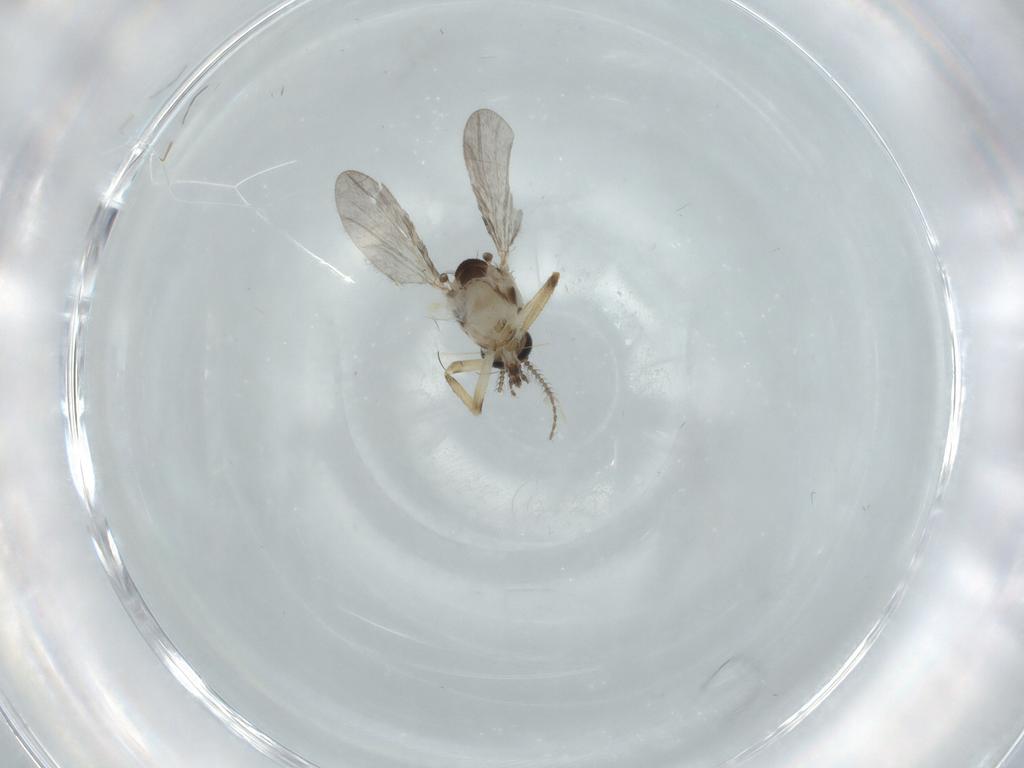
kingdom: Animalia
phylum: Arthropoda
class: Insecta
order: Diptera
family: Ceratopogonidae
